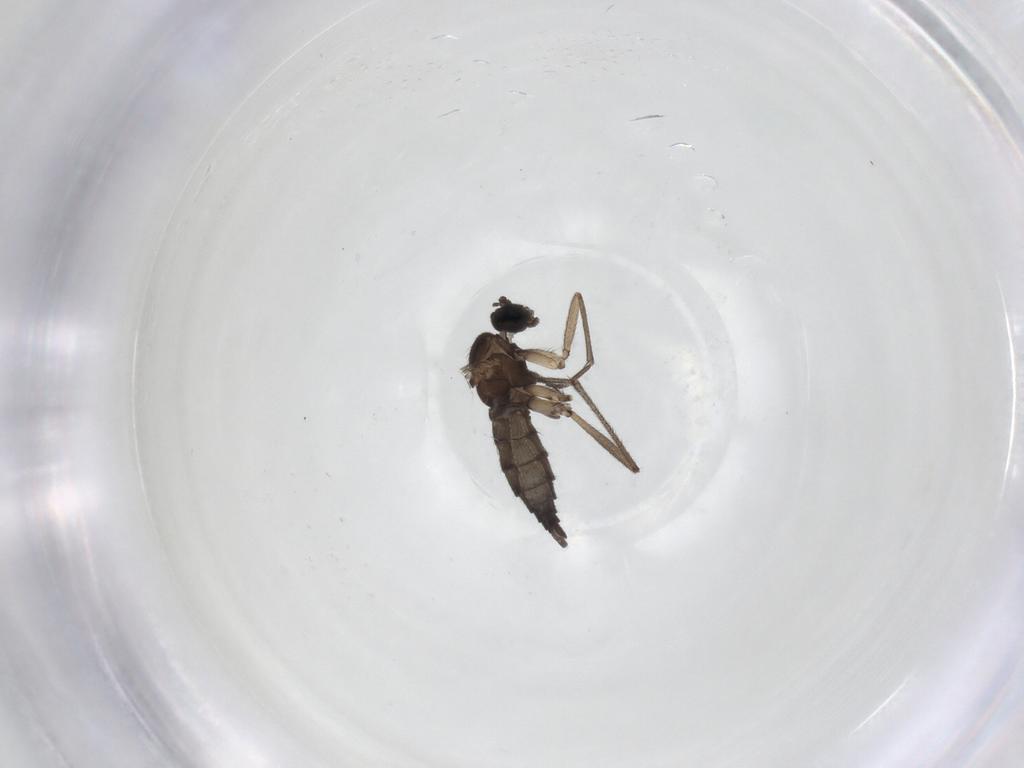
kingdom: Animalia
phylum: Arthropoda
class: Insecta
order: Diptera
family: Sciaridae
